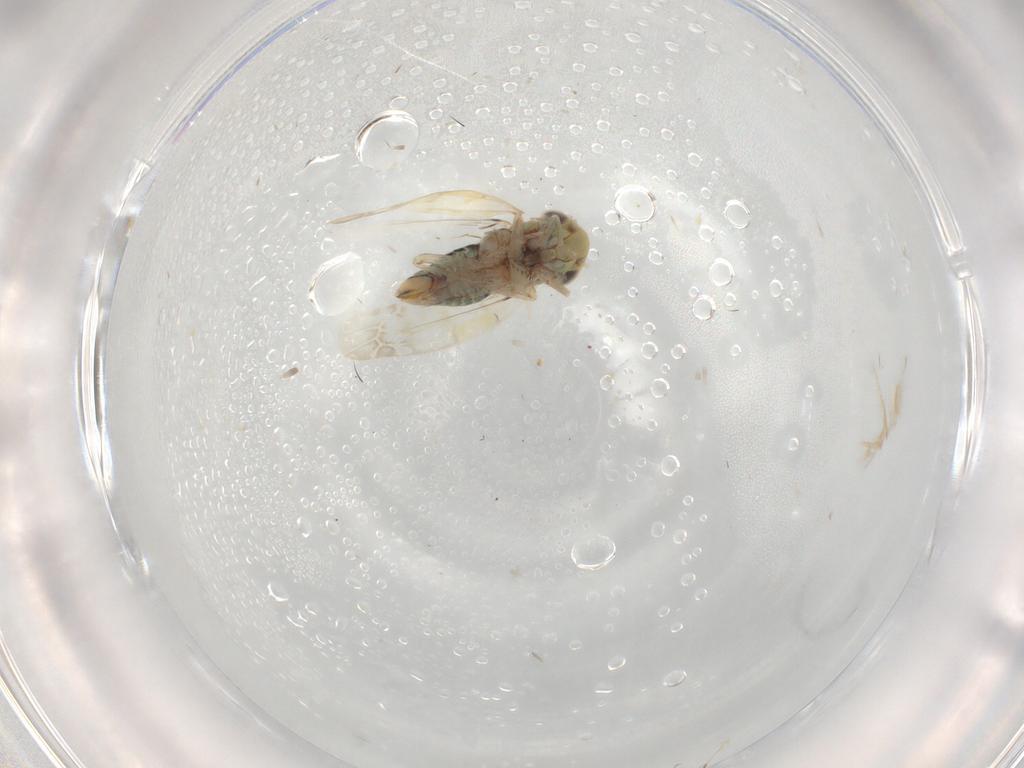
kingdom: Animalia
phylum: Arthropoda
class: Insecta
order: Hemiptera
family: Cicadellidae
